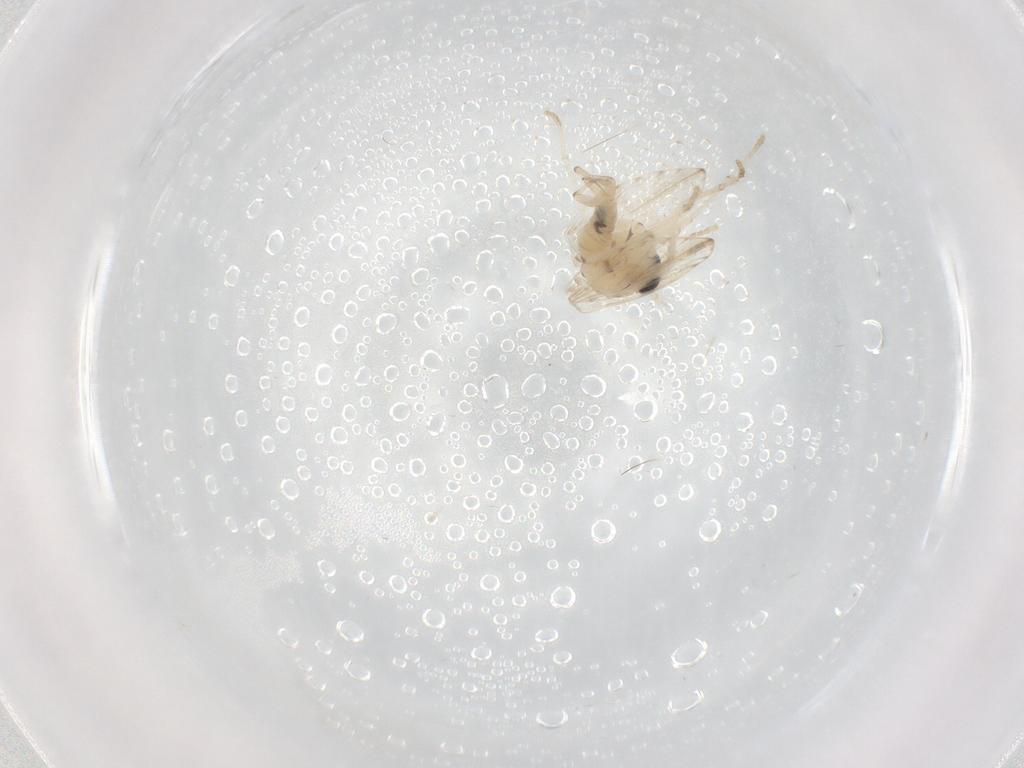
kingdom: Animalia
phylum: Arthropoda
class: Insecta
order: Diptera
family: Psychodidae
